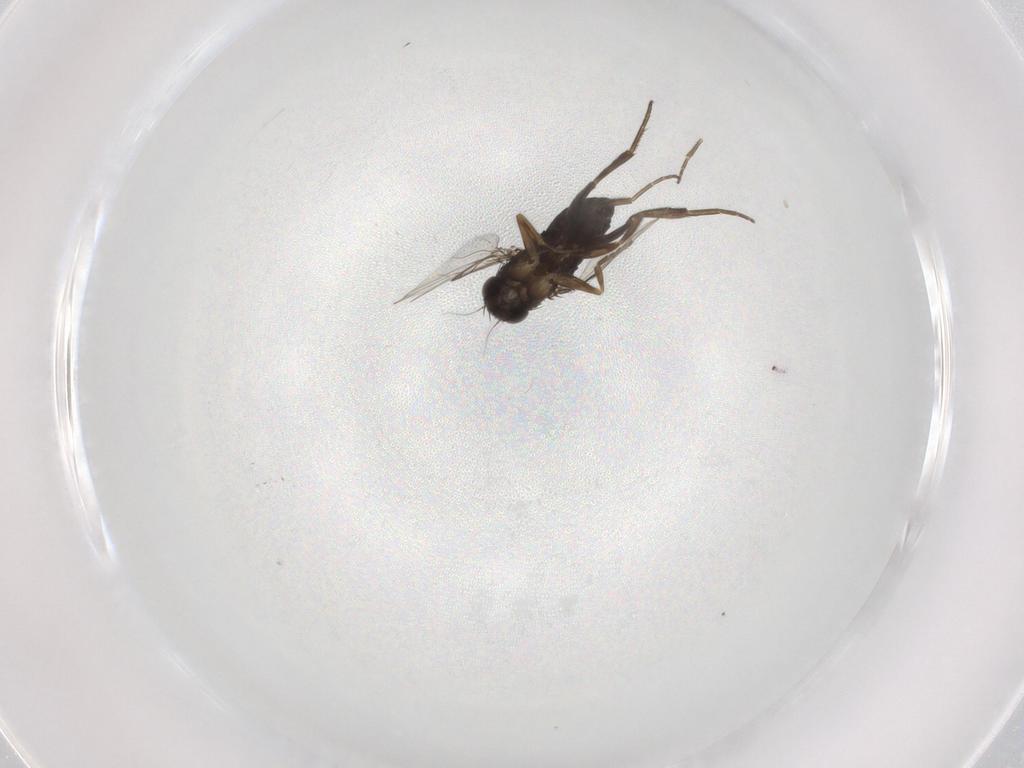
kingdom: Animalia
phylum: Arthropoda
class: Insecta
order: Diptera
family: Phoridae
